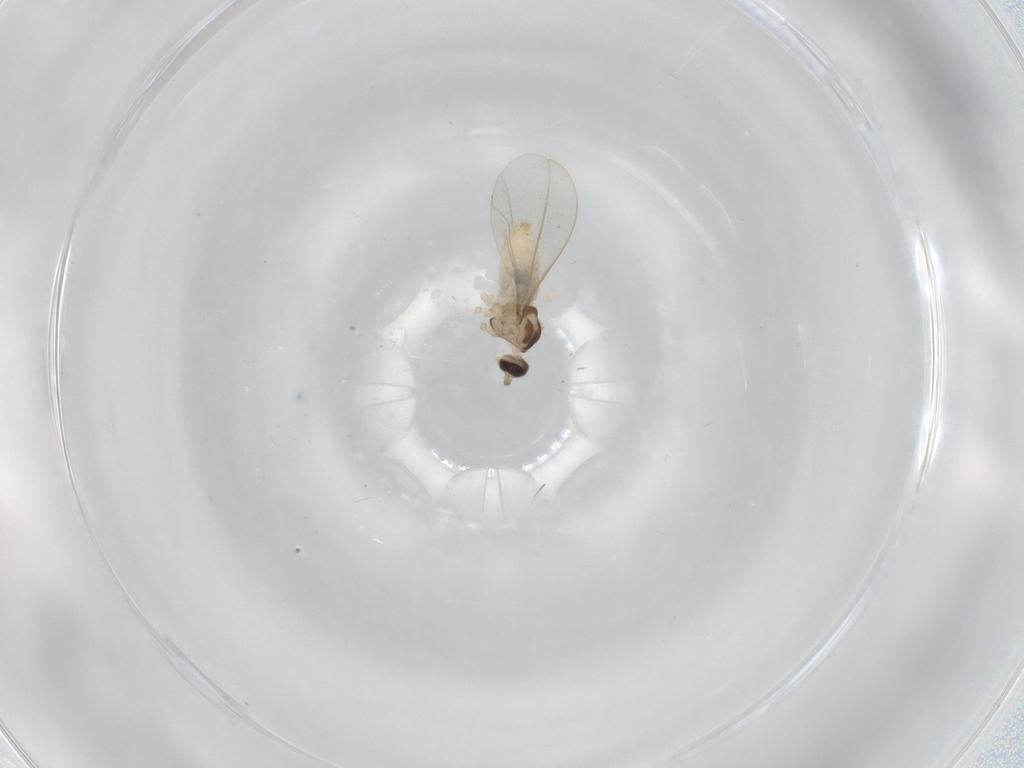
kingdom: Animalia
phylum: Arthropoda
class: Insecta
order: Diptera
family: Cecidomyiidae
